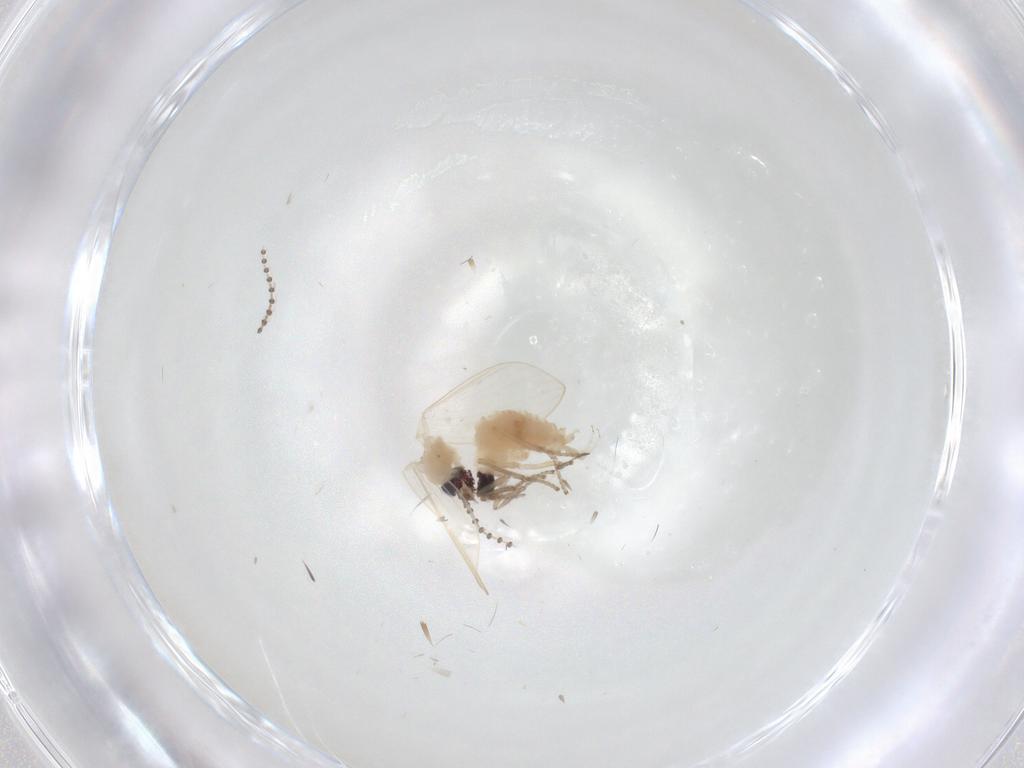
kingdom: Animalia
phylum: Arthropoda
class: Insecta
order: Diptera
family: Psychodidae
